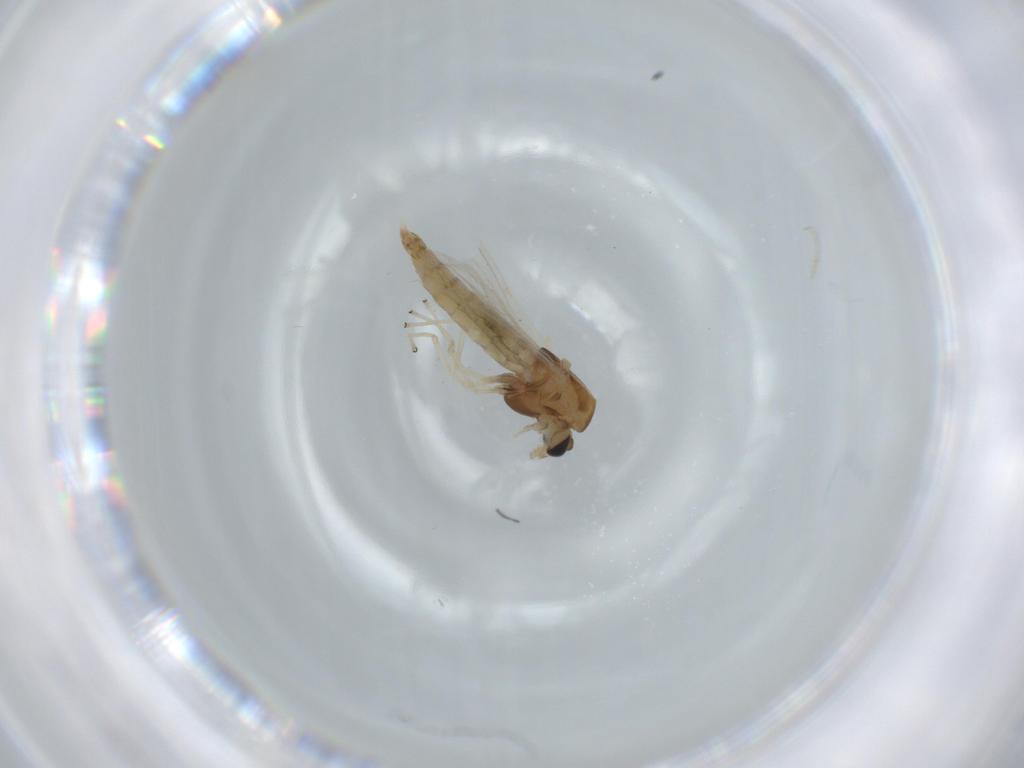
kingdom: Animalia
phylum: Arthropoda
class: Insecta
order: Diptera
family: Chironomidae
